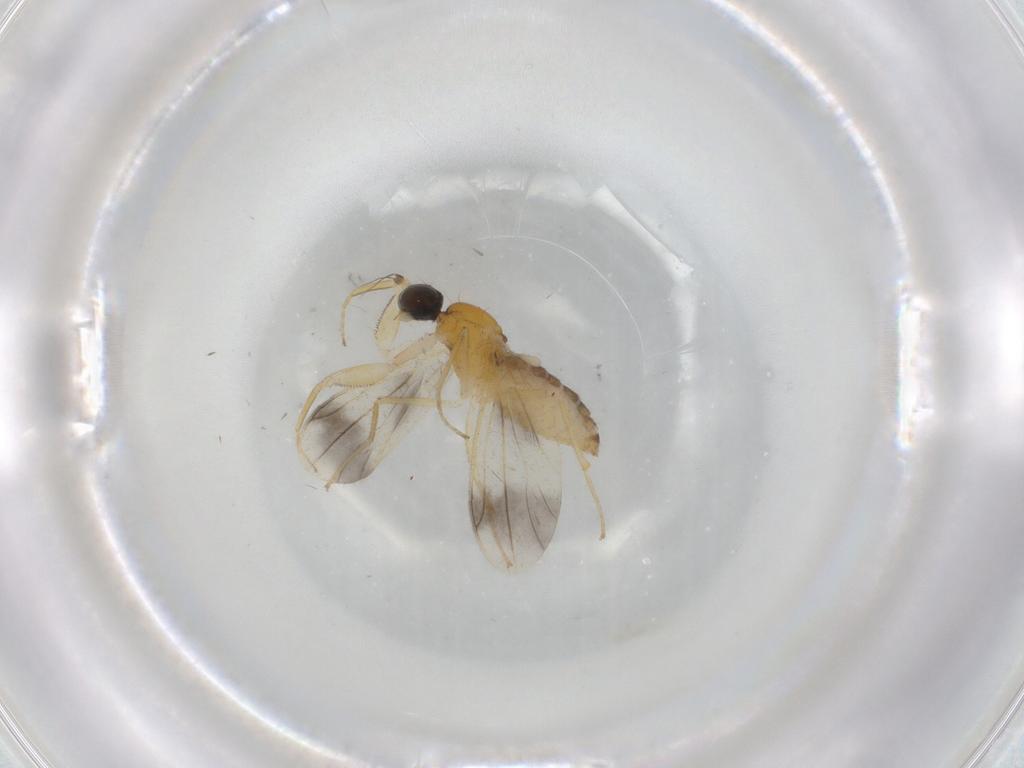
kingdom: Animalia
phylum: Arthropoda
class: Insecta
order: Diptera
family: Empididae
